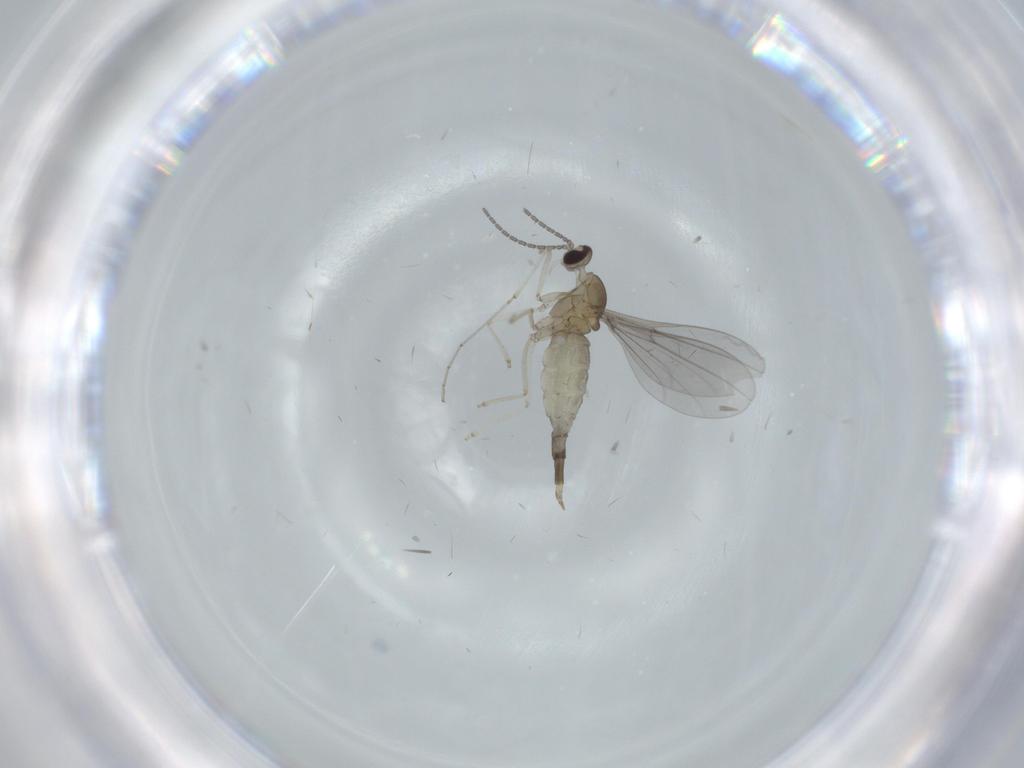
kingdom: Animalia
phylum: Arthropoda
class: Insecta
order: Diptera
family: Cecidomyiidae
